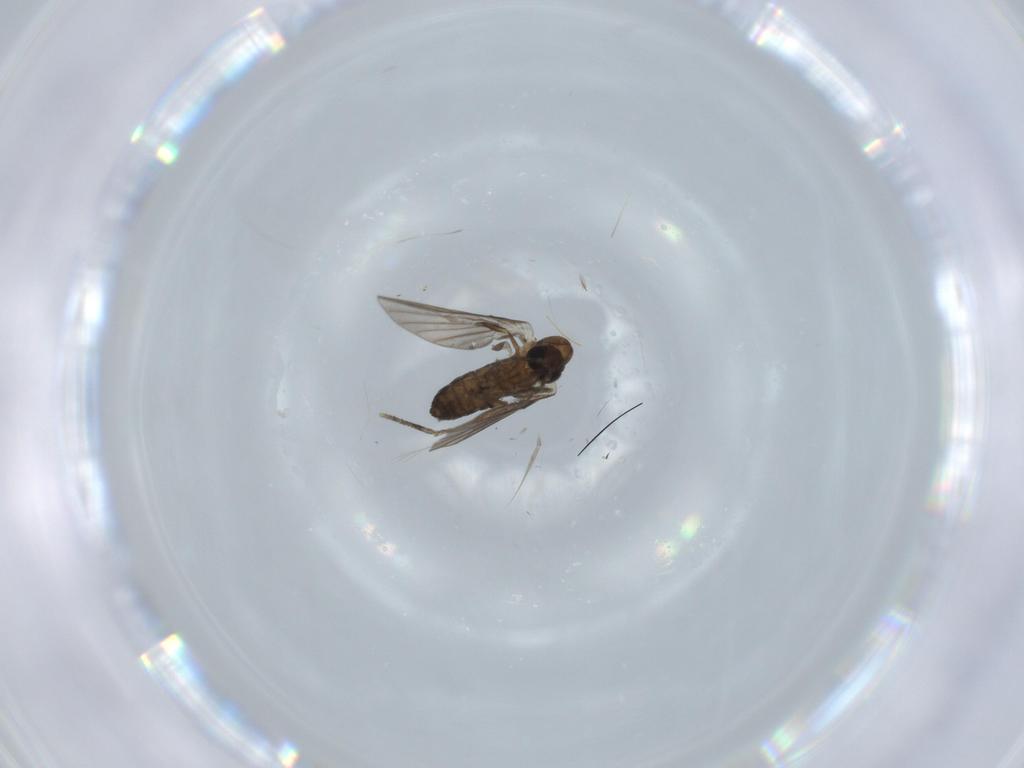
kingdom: Animalia
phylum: Arthropoda
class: Insecta
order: Diptera
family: Phoridae
